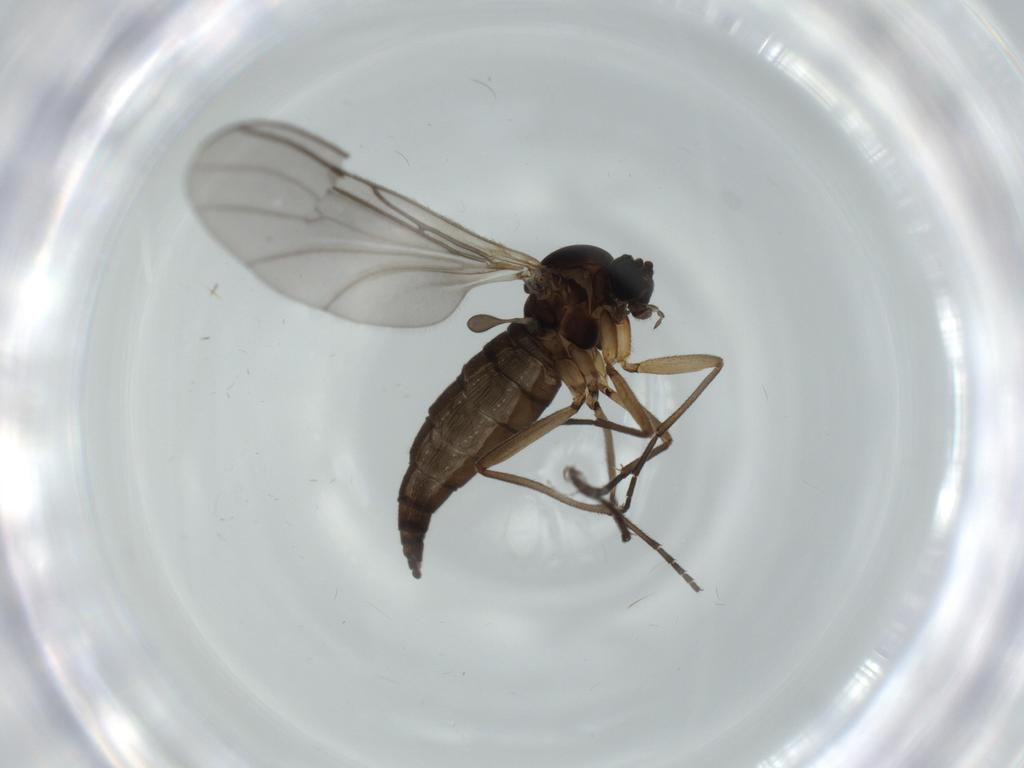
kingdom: Animalia
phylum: Arthropoda
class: Insecta
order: Diptera
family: Sciaridae
